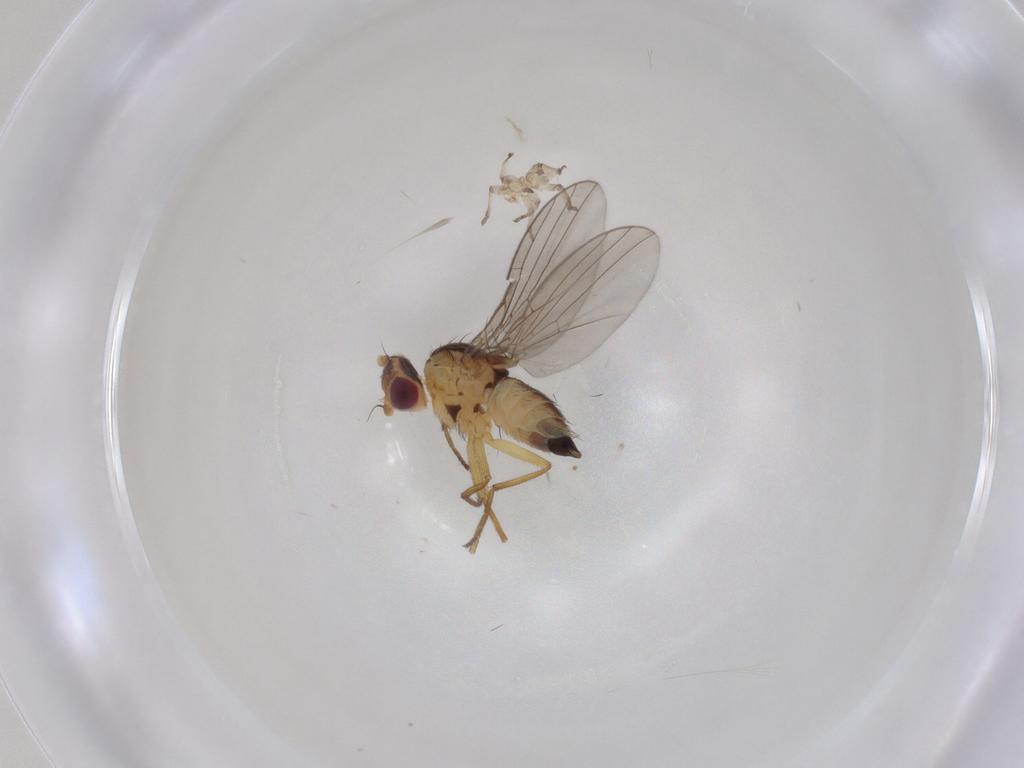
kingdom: Animalia
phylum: Arthropoda
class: Insecta
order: Diptera
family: Agromyzidae
